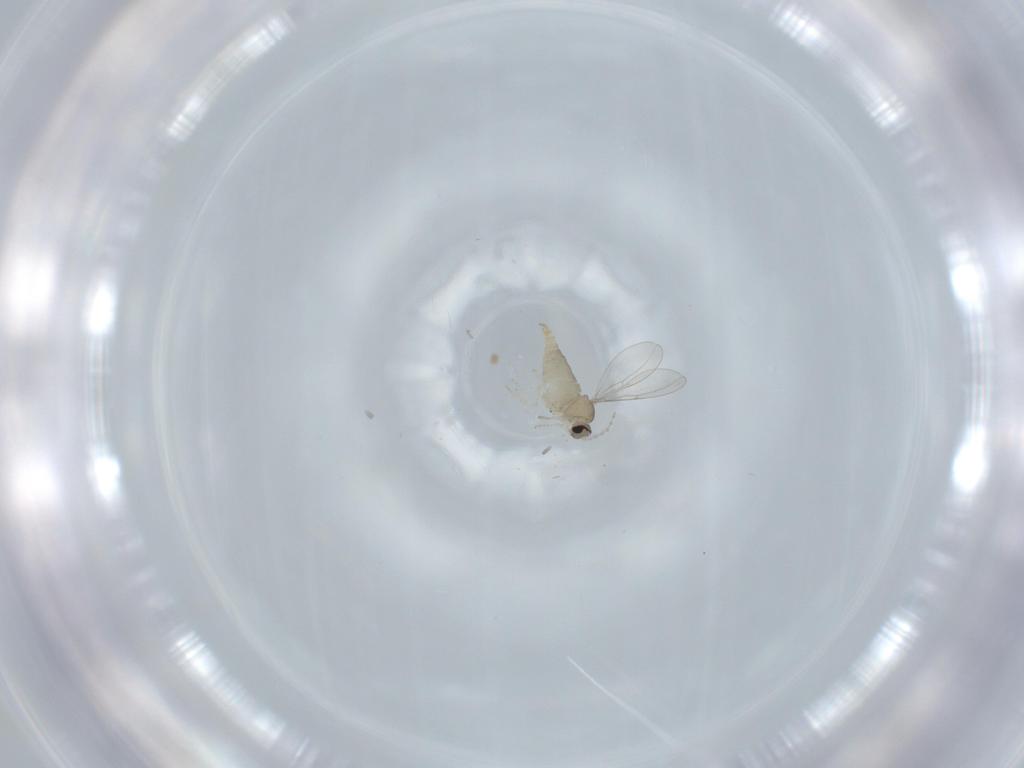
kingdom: Animalia
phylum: Arthropoda
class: Insecta
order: Diptera
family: Cecidomyiidae
